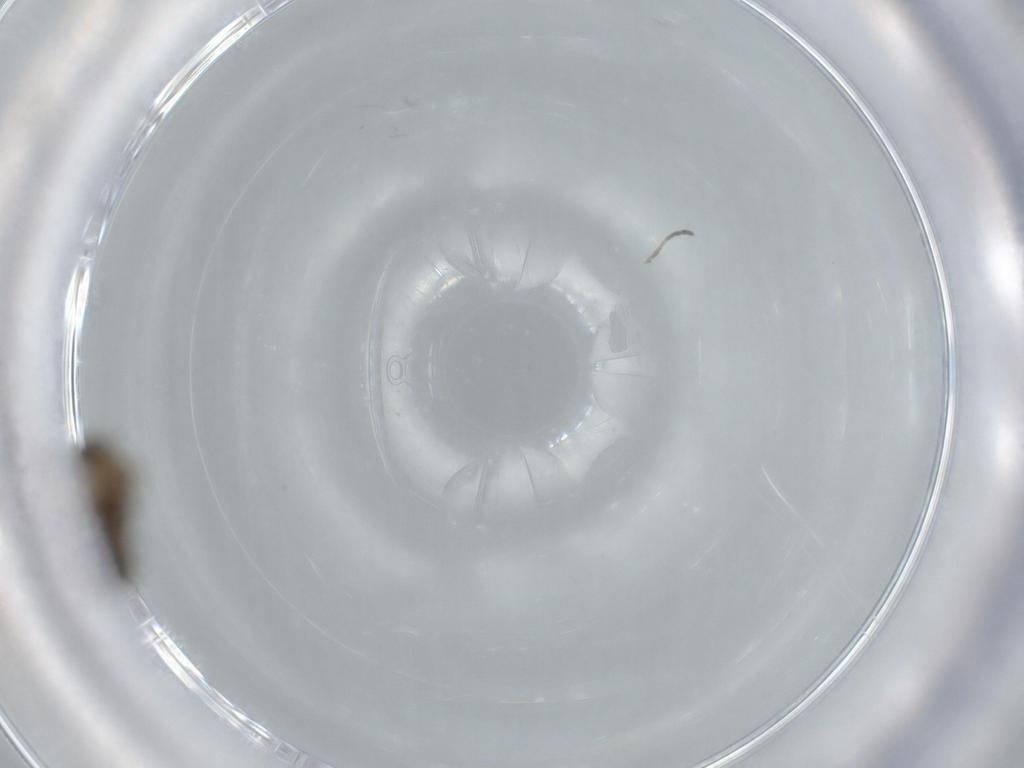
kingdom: Animalia
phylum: Arthropoda
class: Insecta
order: Diptera
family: Psychodidae
